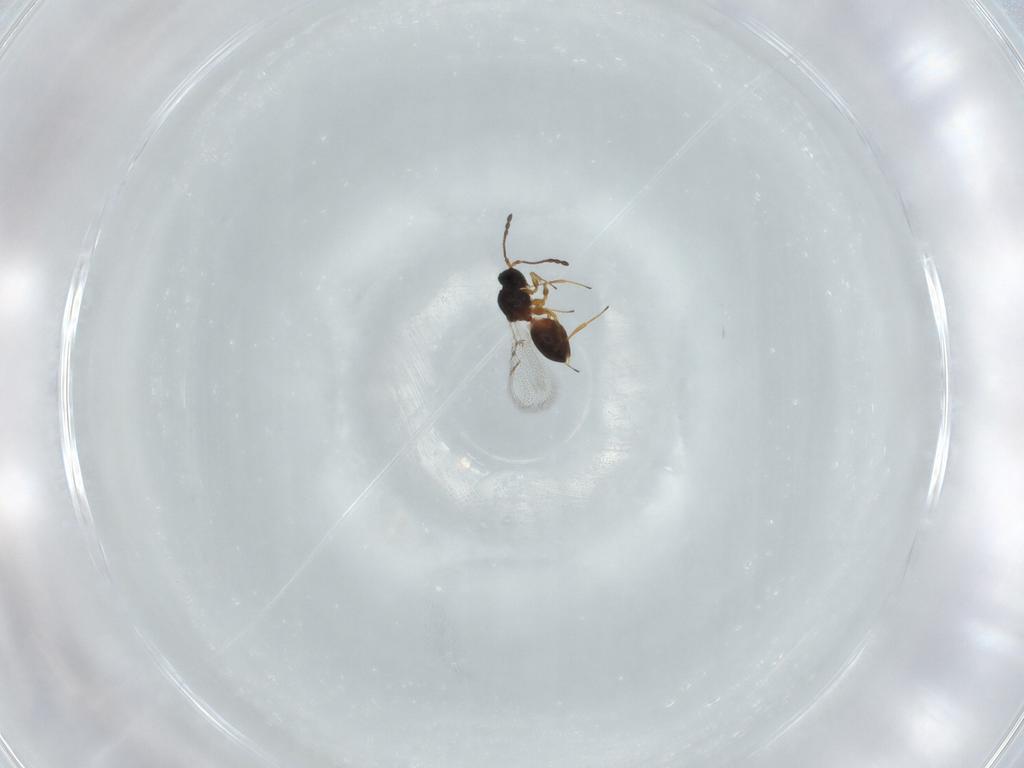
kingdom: Animalia
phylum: Arthropoda
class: Insecta
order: Hymenoptera
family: Figitidae
